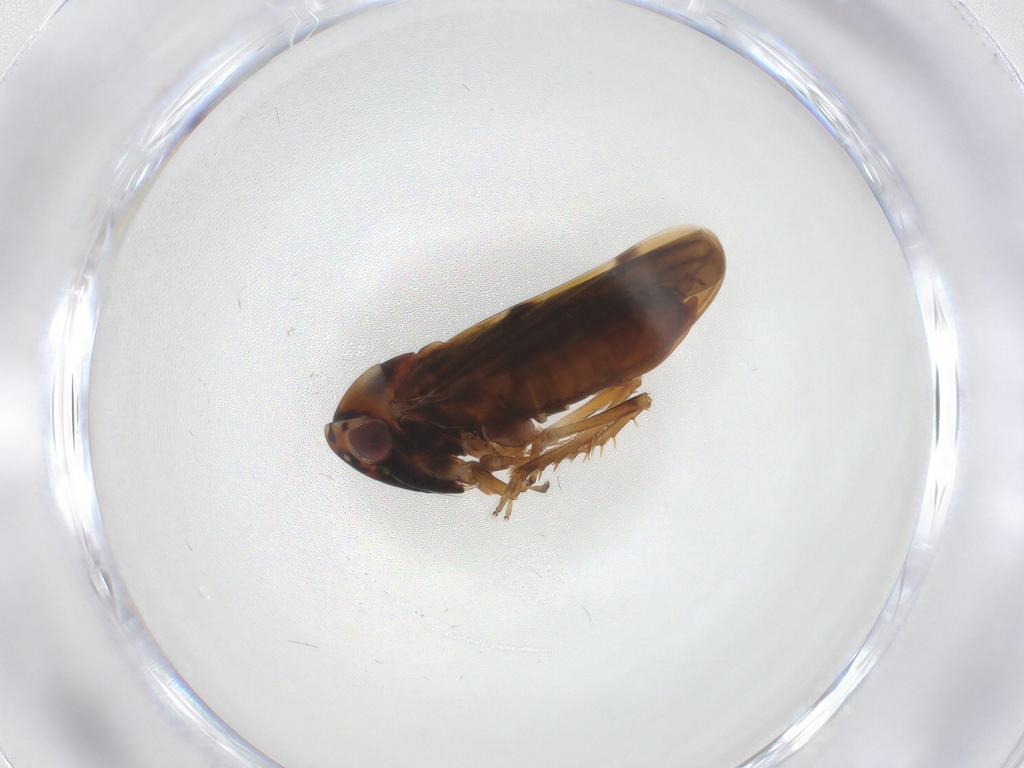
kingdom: Animalia
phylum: Arthropoda
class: Insecta
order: Hemiptera
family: Cicadellidae
